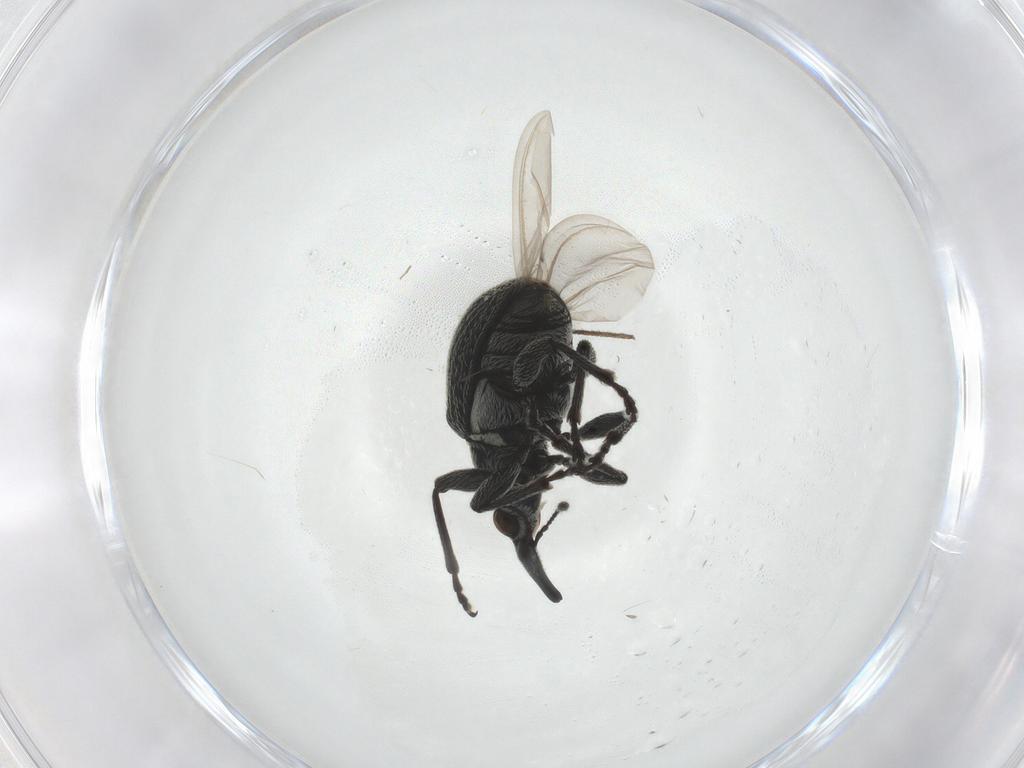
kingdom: Animalia
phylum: Arthropoda
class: Insecta
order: Coleoptera
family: Brentidae
